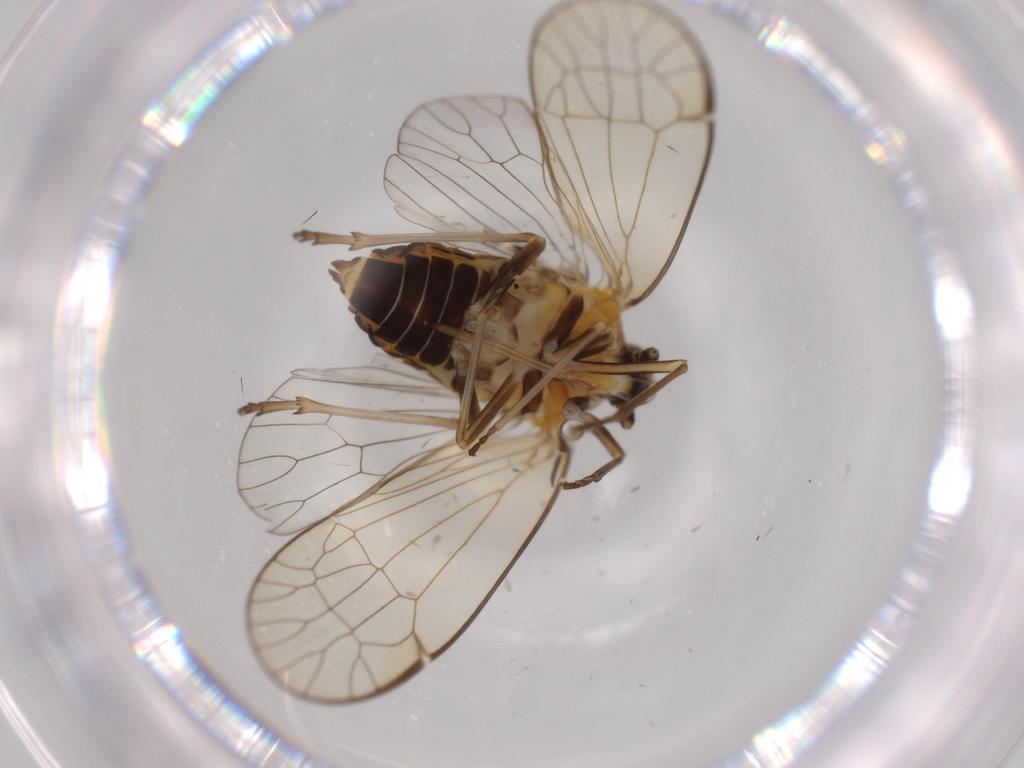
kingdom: Animalia
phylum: Arthropoda
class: Insecta
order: Hemiptera
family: Kinnaridae
